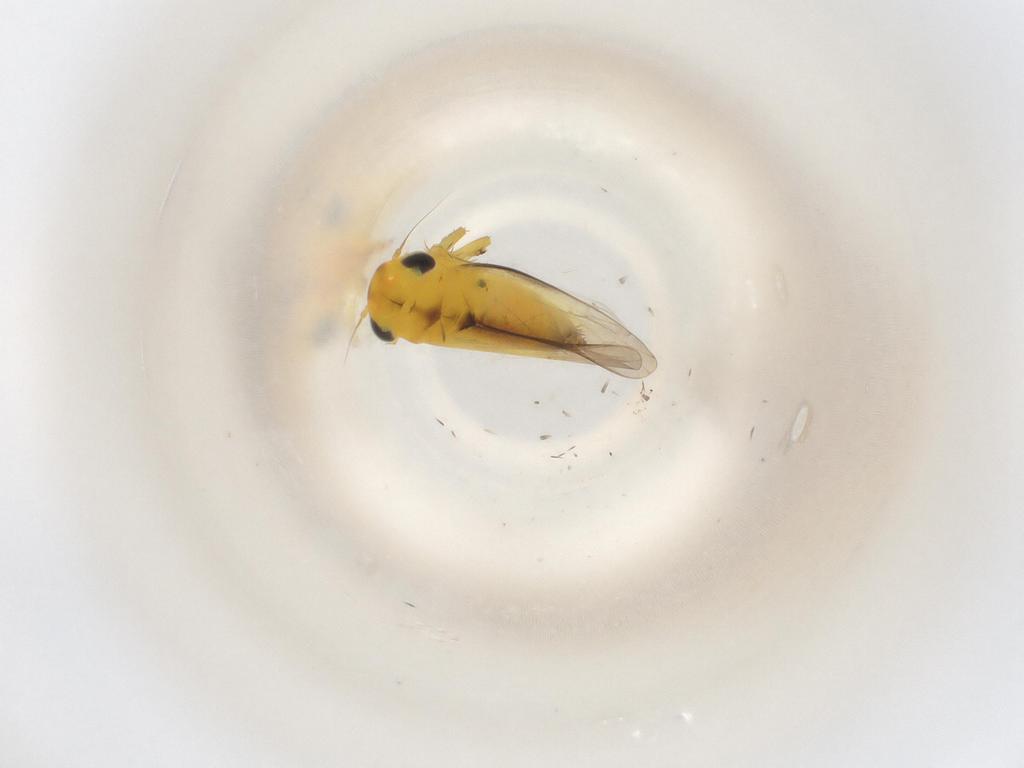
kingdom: Animalia
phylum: Arthropoda
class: Insecta
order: Hemiptera
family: Cicadellidae
